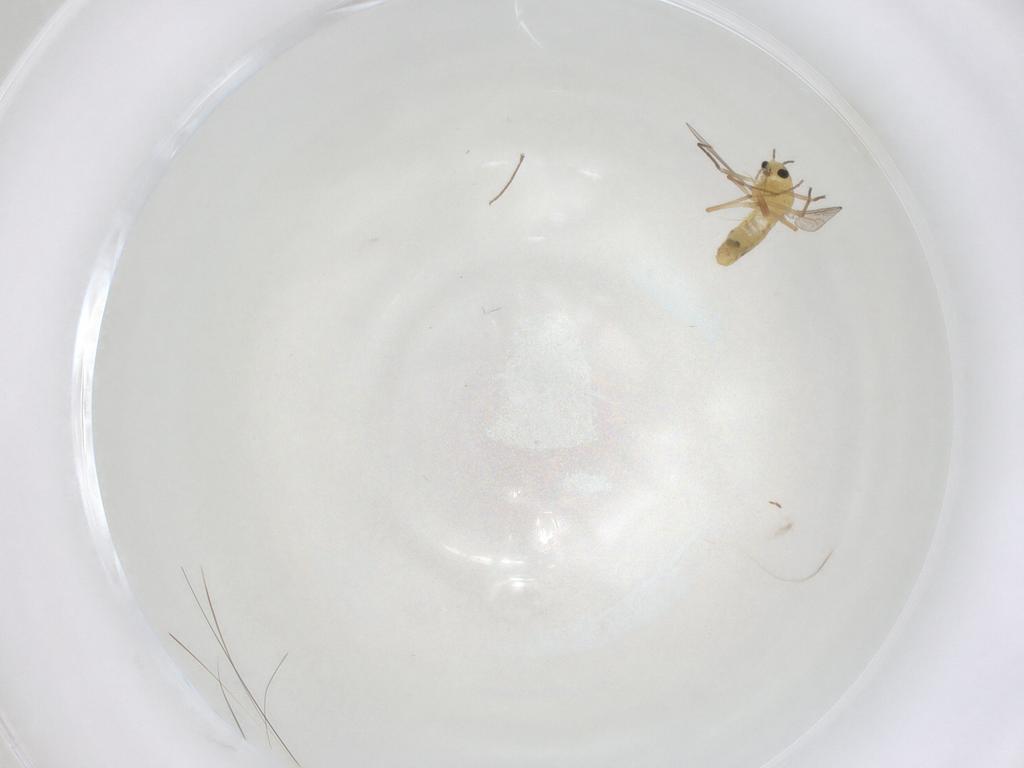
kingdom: Animalia
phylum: Arthropoda
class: Insecta
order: Diptera
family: Chironomidae
